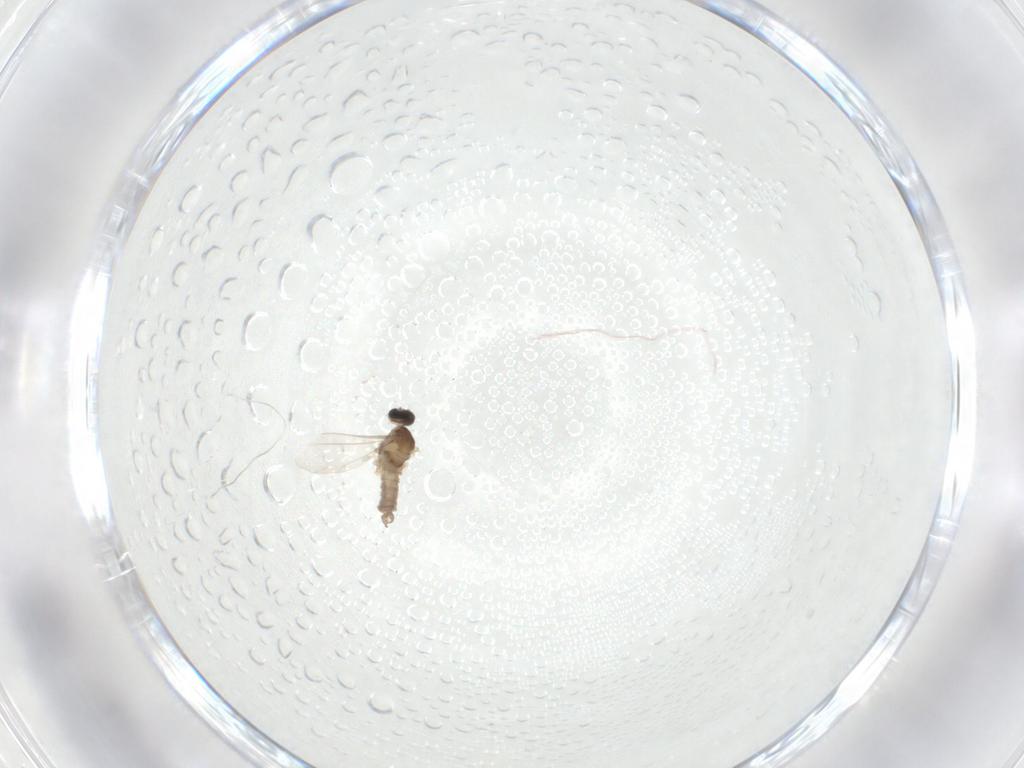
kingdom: Animalia
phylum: Arthropoda
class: Insecta
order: Diptera
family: Cecidomyiidae
